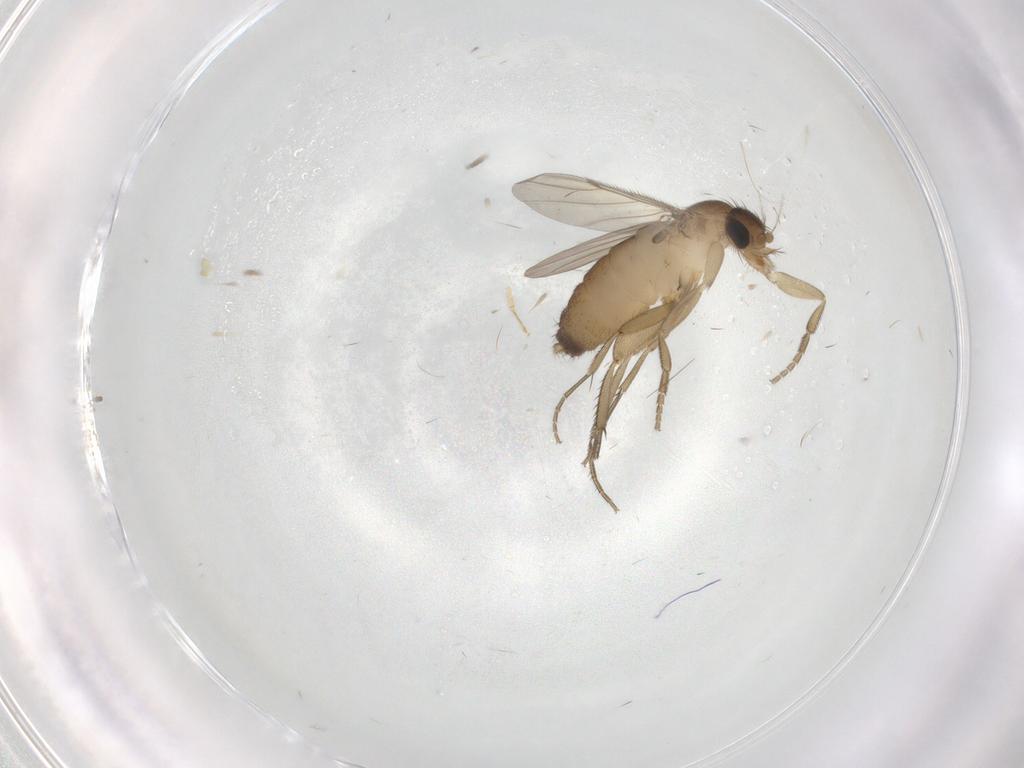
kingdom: Animalia
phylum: Arthropoda
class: Insecta
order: Diptera
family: Phoridae
